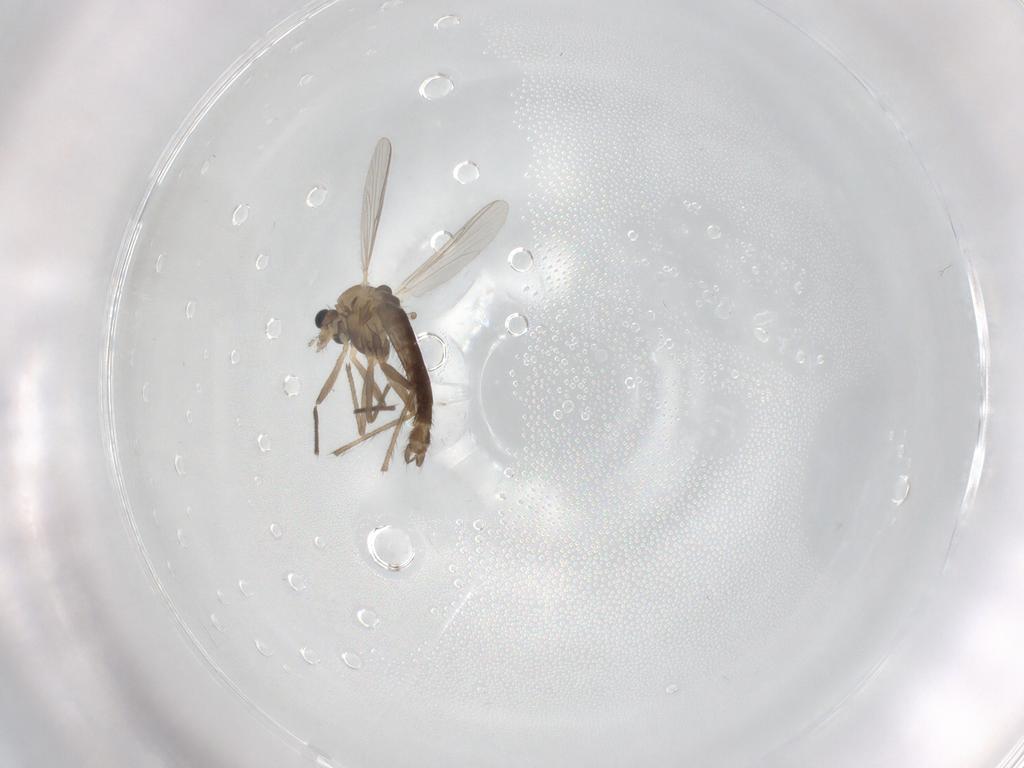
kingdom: Animalia
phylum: Arthropoda
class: Insecta
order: Diptera
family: Chironomidae
